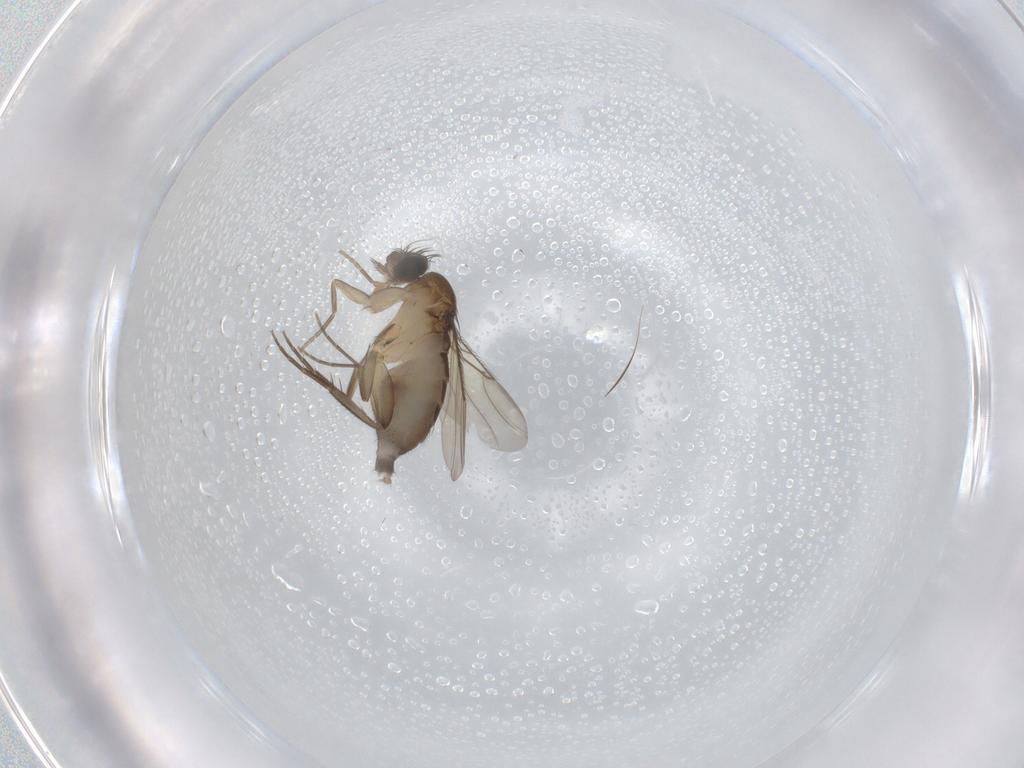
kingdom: Animalia
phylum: Arthropoda
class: Insecta
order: Diptera
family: Phoridae
